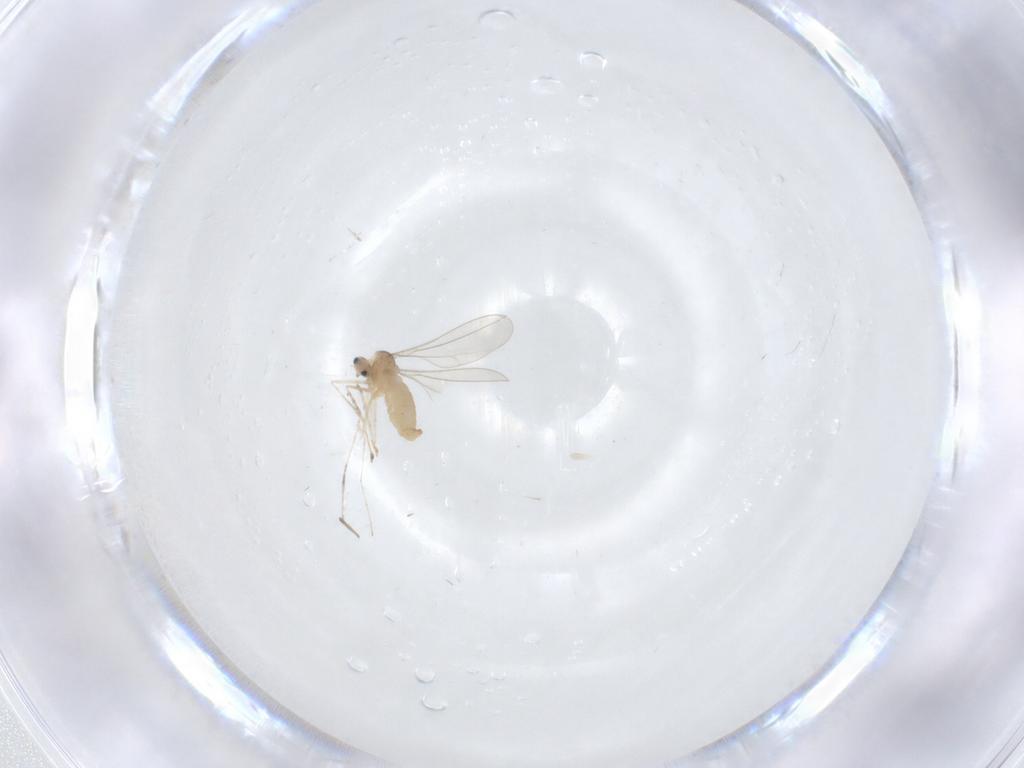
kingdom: Animalia
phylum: Arthropoda
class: Insecta
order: Diptera
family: Cecidomyiidae
